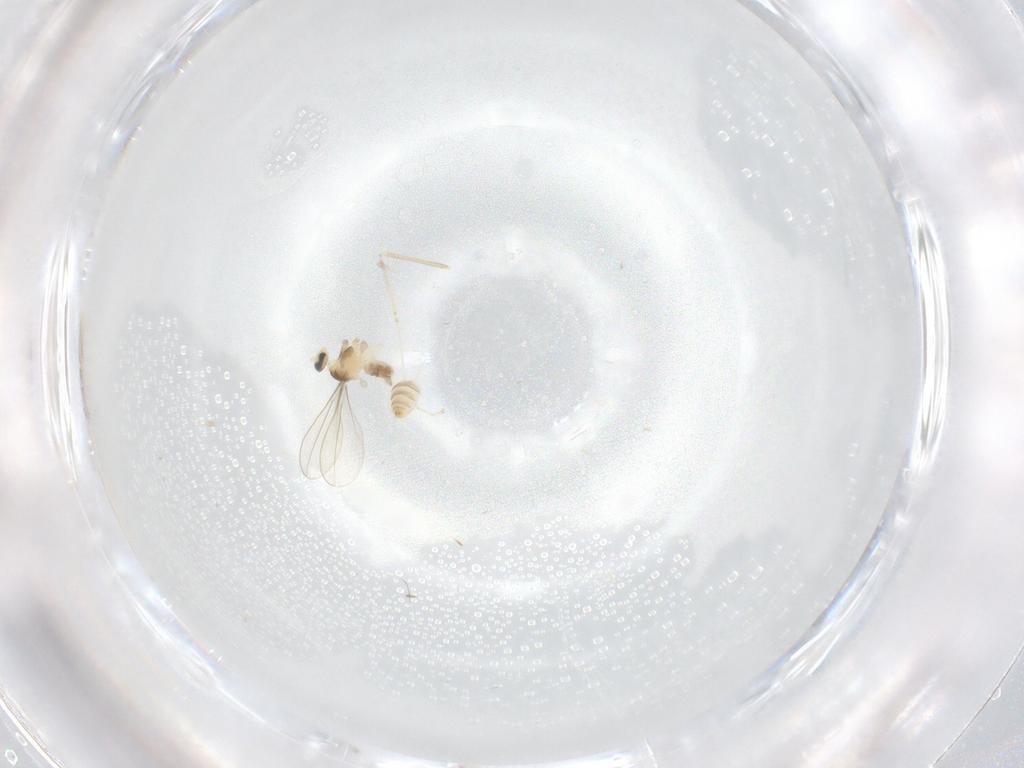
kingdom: Animalia
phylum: Arthropoda
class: Insecta
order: Diptera
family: Cecidomyiidae
